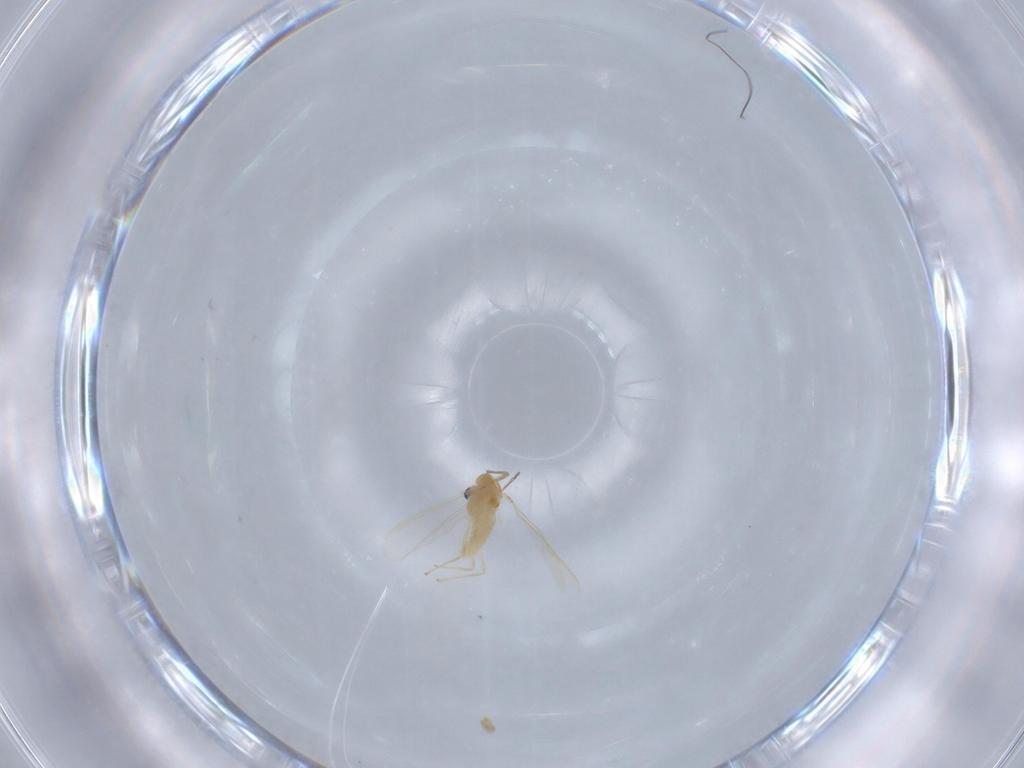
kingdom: Animalia
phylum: Arthropoda
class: Insecta
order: Diptera
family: Chironomidae
